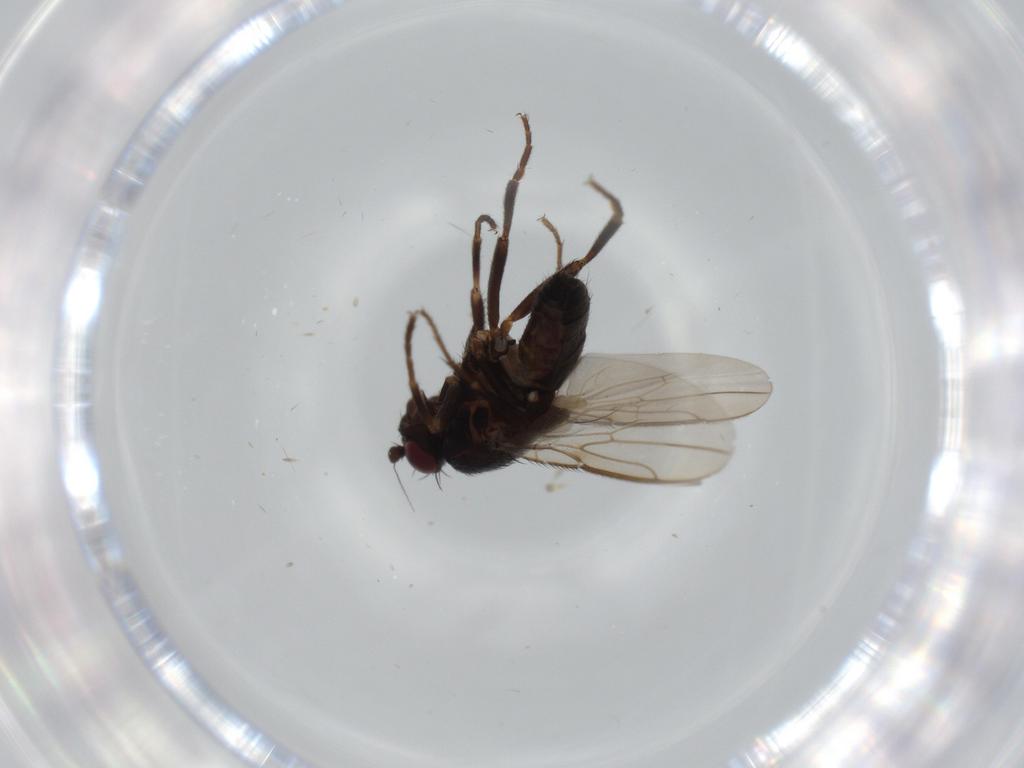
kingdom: Animalia
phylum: Arthropoda
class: Insecta
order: Diptera
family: Sphaeroceridae
